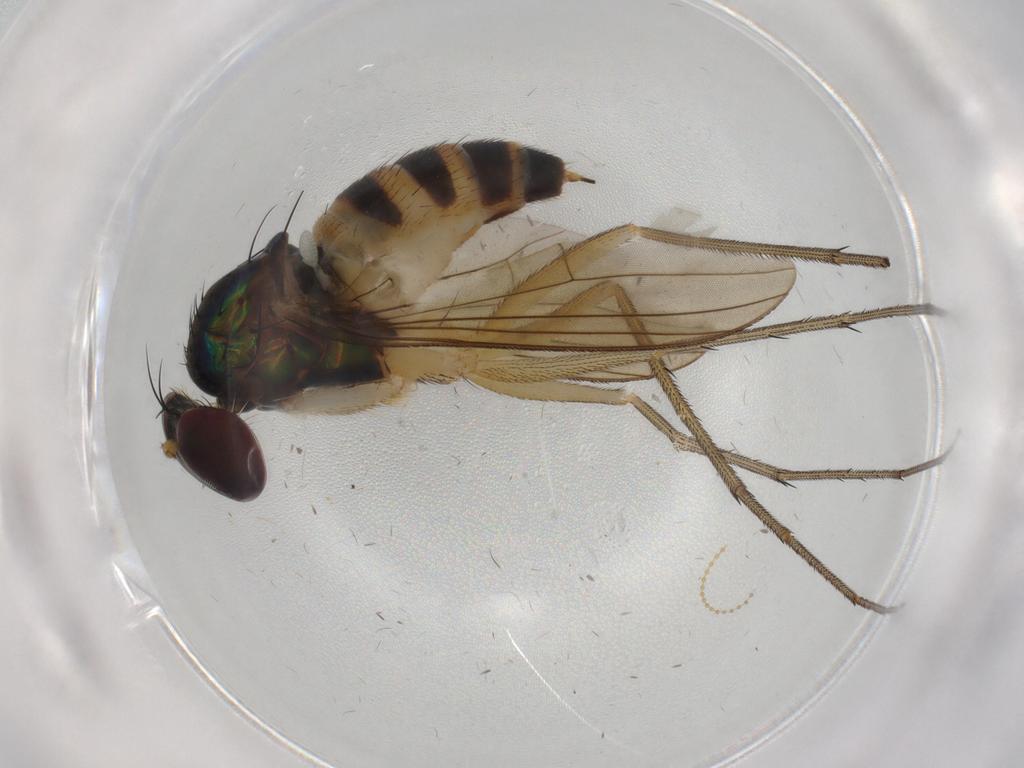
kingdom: Animalia
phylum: Arthropoda
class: Insecta
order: Diptera
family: Dolichopodidae
